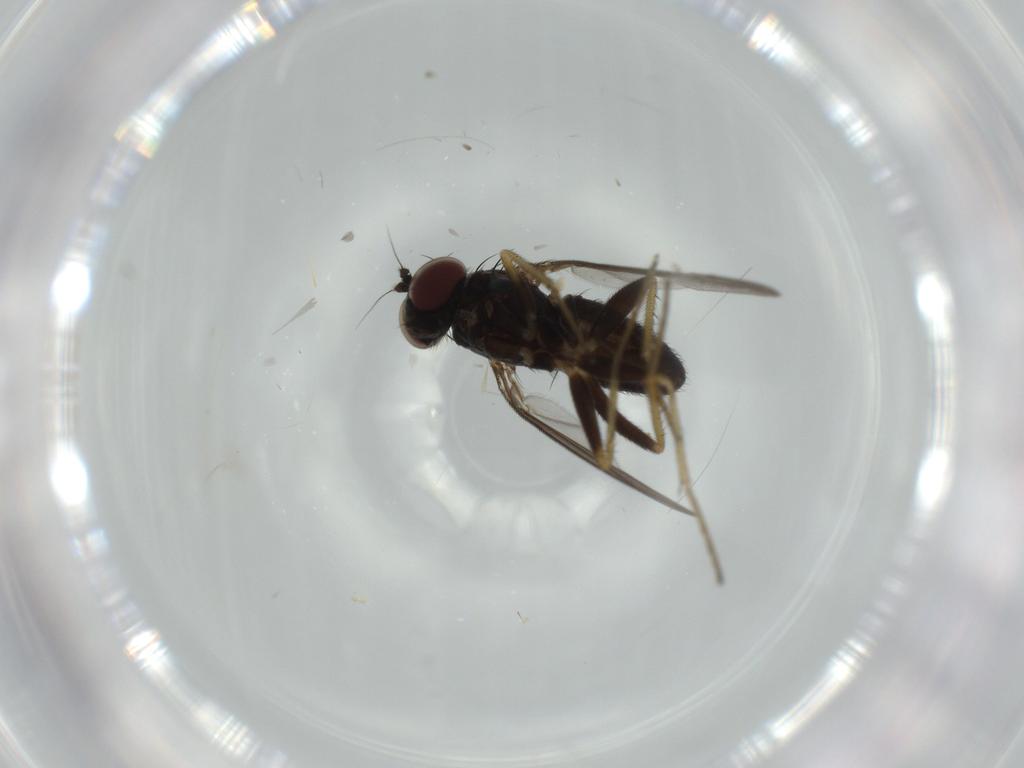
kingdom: Animalia
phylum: Arthropoda
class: Insecta
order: Diptera
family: Dolichopodidae
